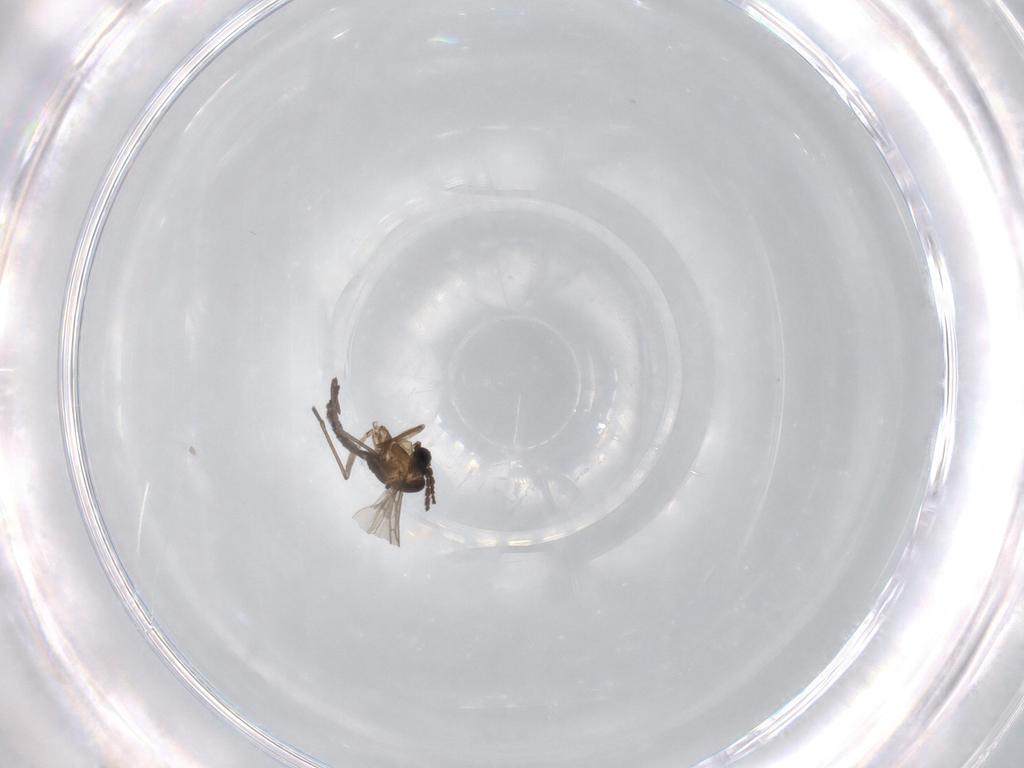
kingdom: Animalia
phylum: Arthropoda
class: Insecta
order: Diptera
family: Sciaridae
